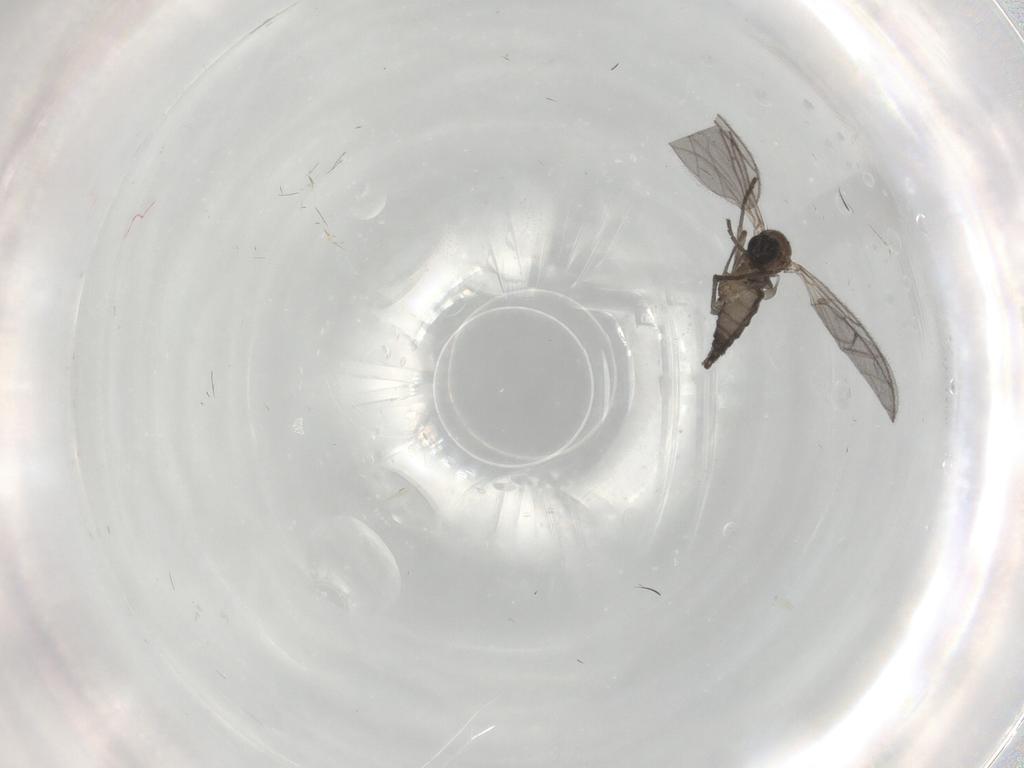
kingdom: Animalia
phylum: Arthropoda
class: Insecta
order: Diptera
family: Sciaridae
